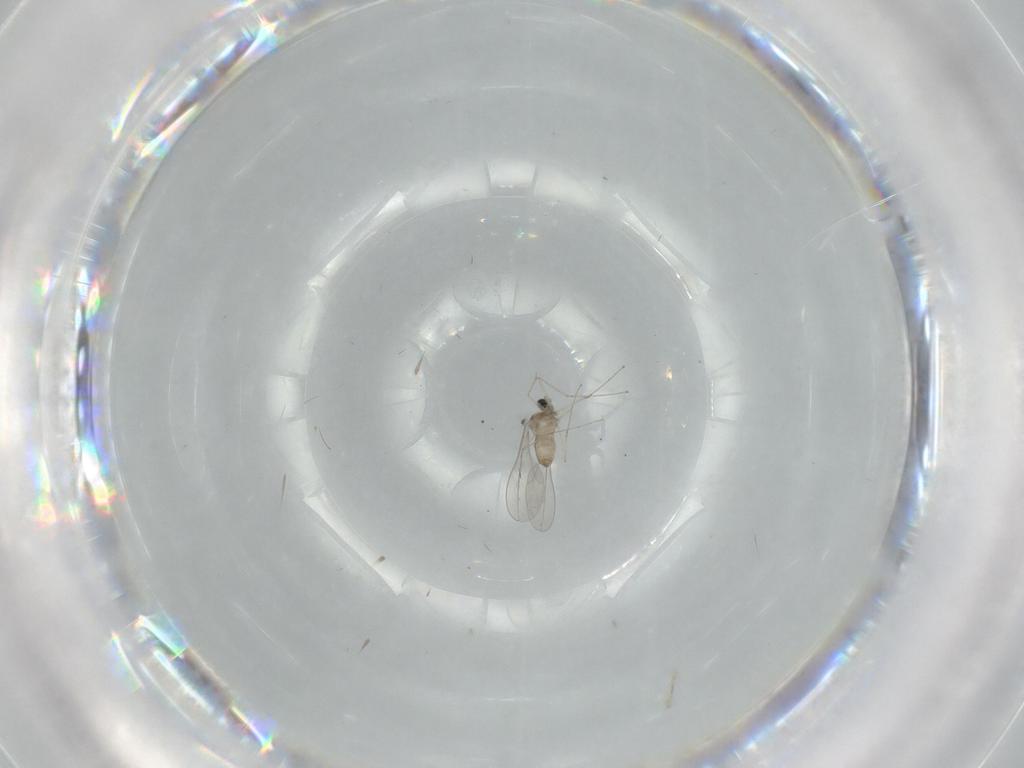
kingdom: Animalia
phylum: Arthropoda
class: Insecta
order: Diptera
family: Cecidomyiidae
